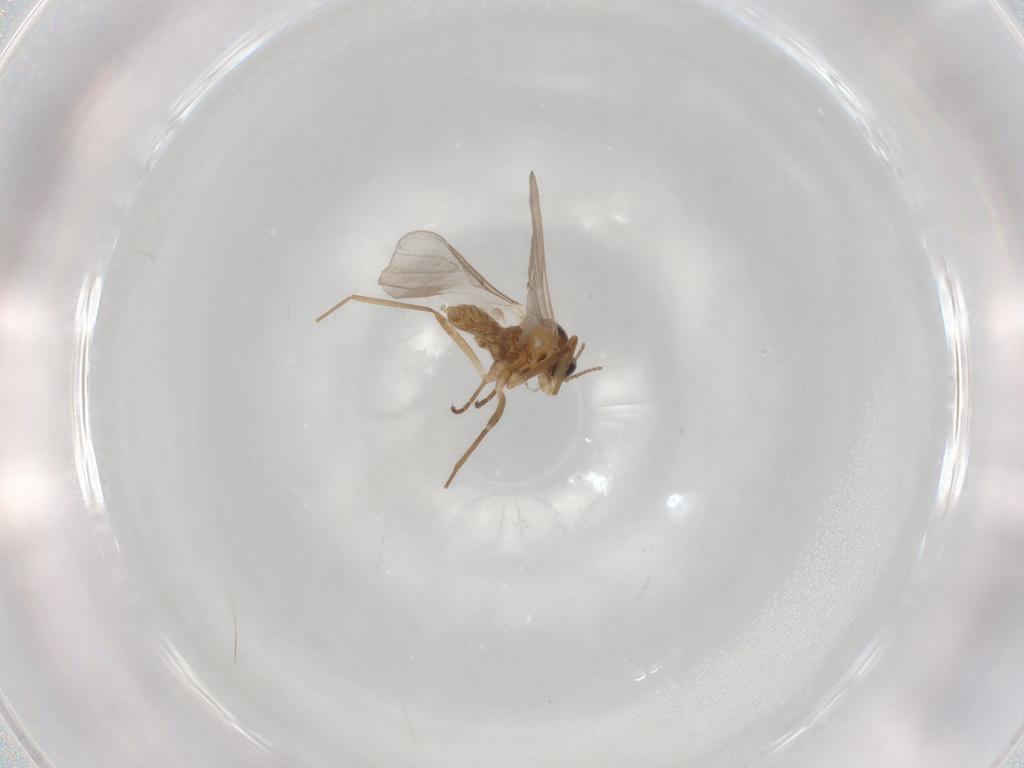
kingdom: Animalia
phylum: Arthropoda
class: Insecta
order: Diptera
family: Cecidomyiidae
